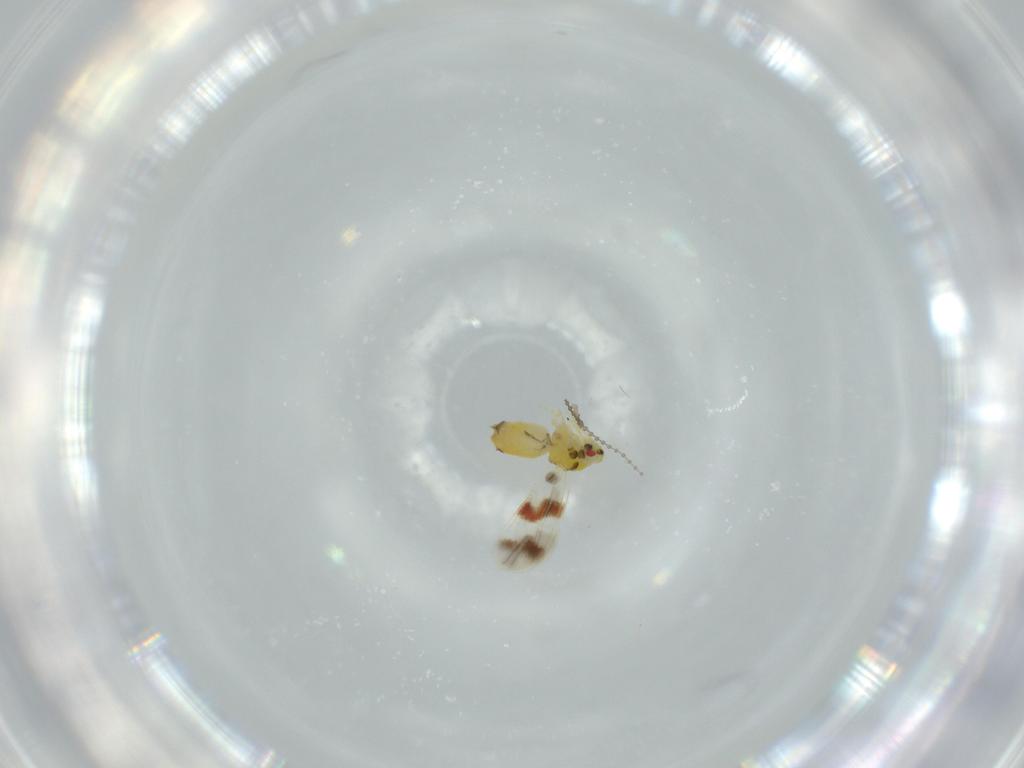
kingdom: Animalia
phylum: Arthropoda
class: Insecta
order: Hemiptera
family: Aleyrodidae
